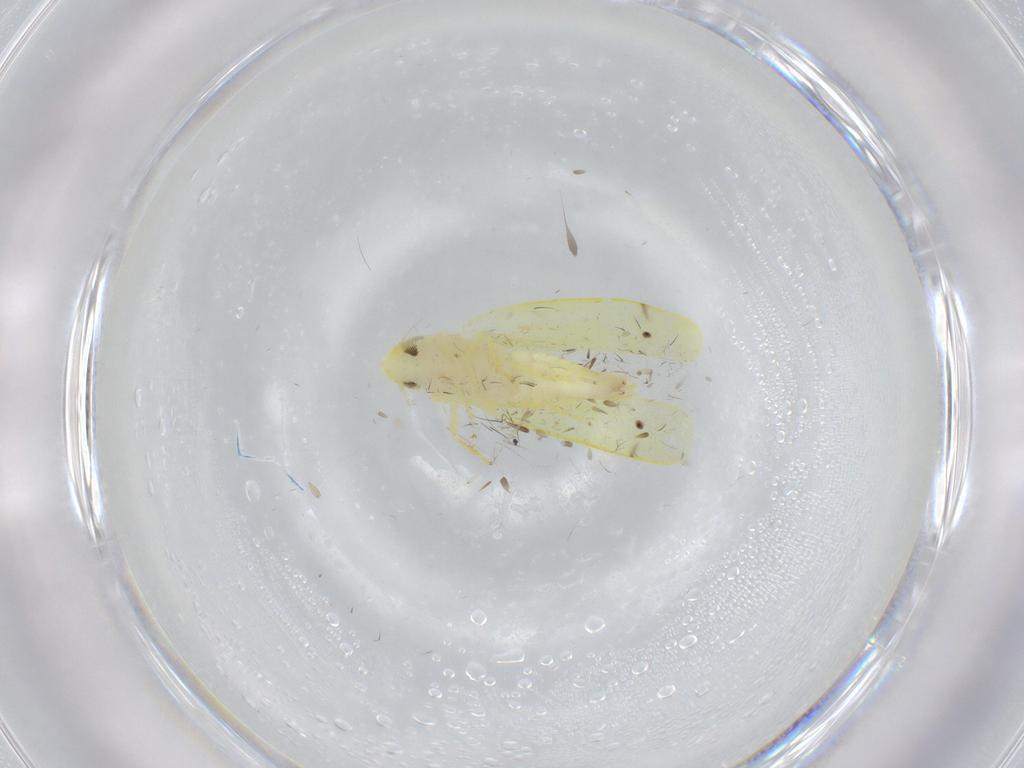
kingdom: Animalia
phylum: Arthropoda
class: Insecta
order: Hemiptera
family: Cicadellidae
